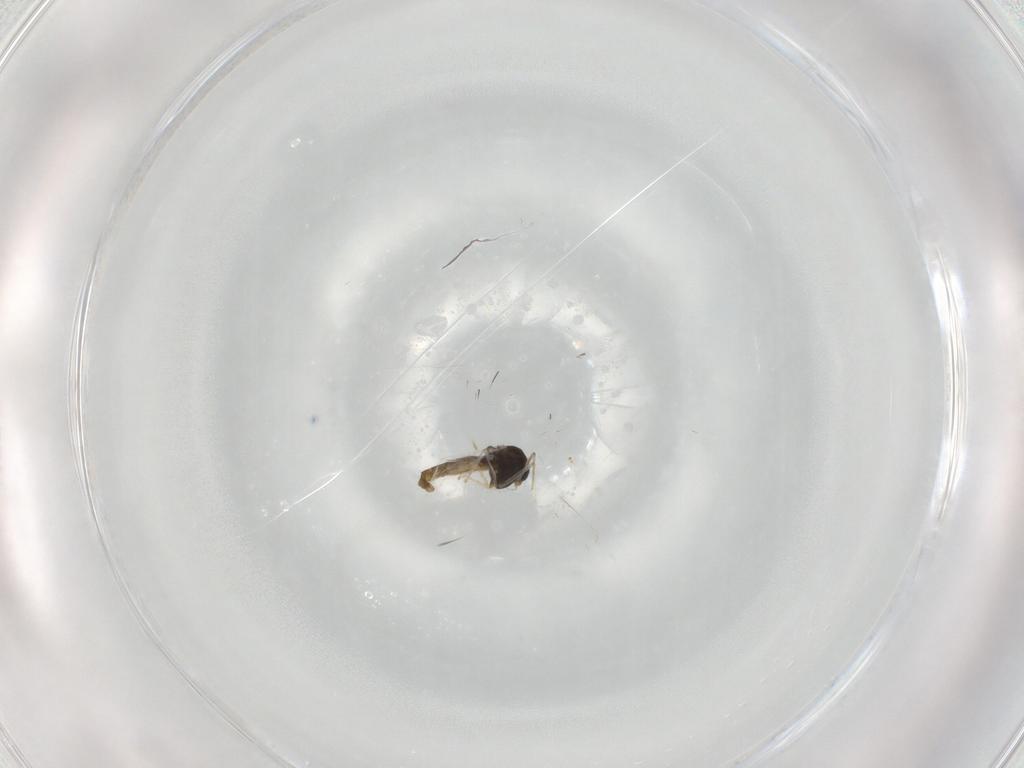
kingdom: Animalia
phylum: Arthropoda
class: Insecta
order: Diptera
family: Chironomidae
